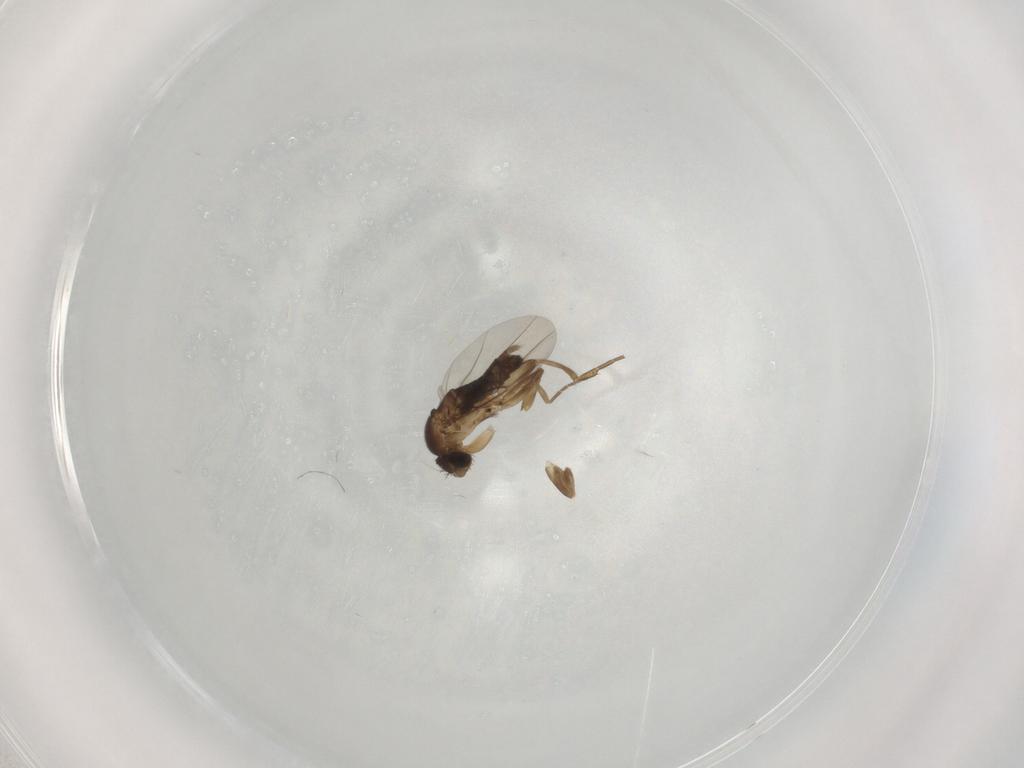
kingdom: Animalia
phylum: Arthropoda
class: Insecta
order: Diptera
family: Phoridae
